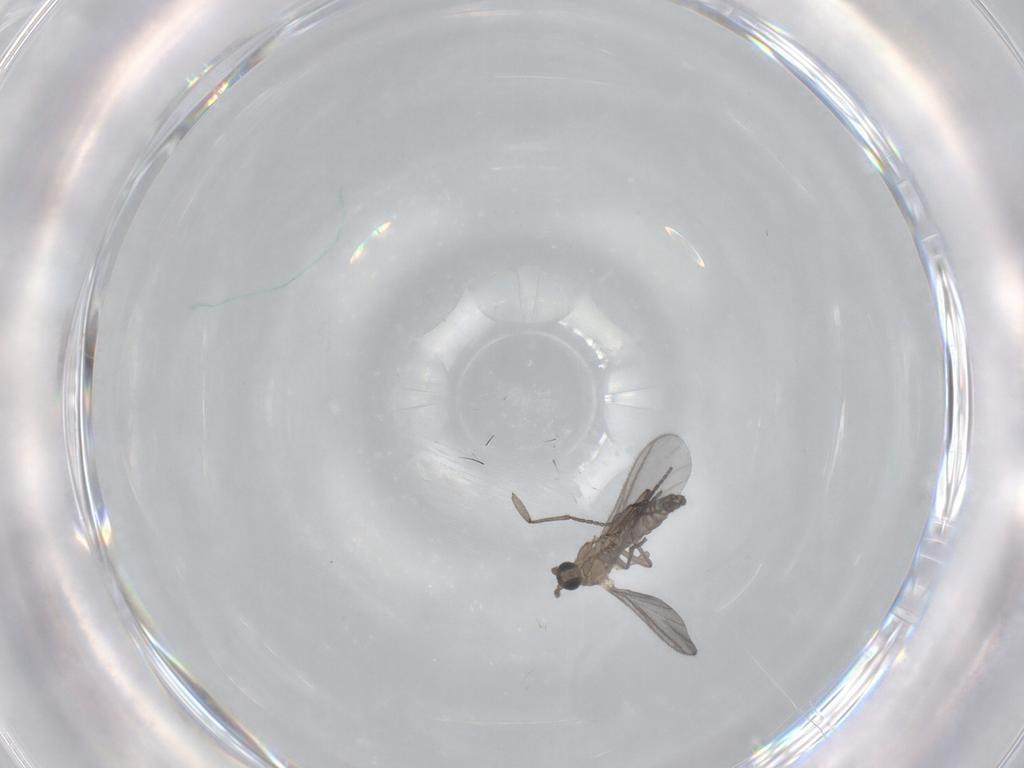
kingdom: Animalia
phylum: Arthropoda
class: Insecta
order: Diptera
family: Sciaridae
